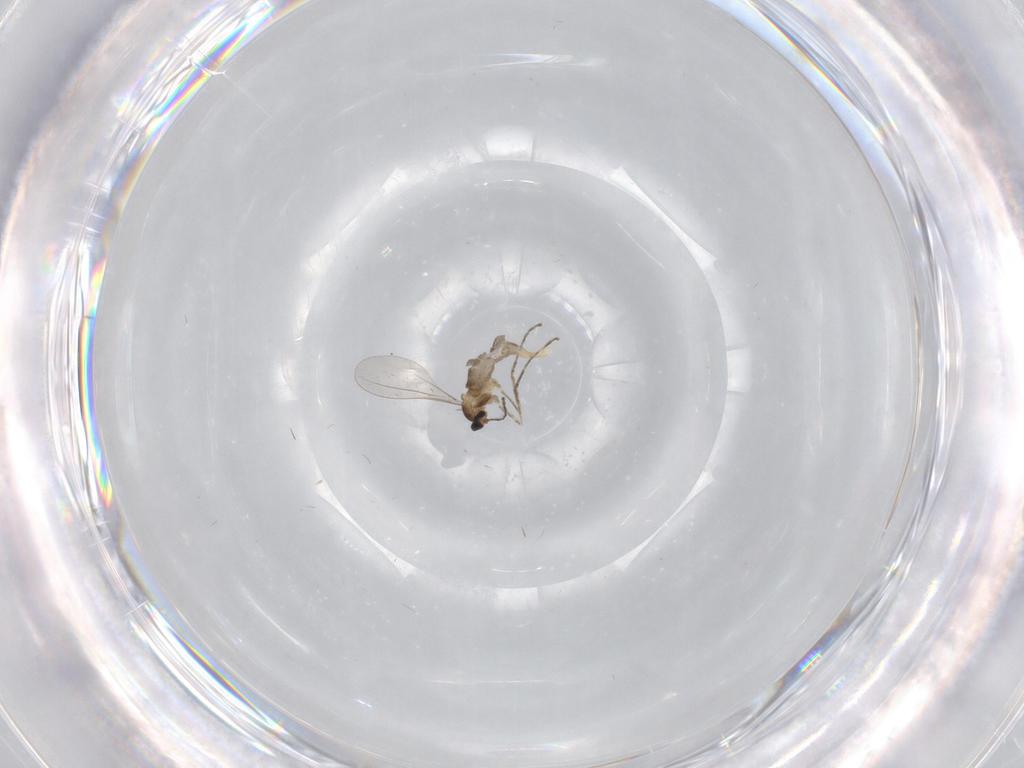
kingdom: Animalia
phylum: Arthropoda
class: Insecta
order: Diptera
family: Cecidomyiidae
